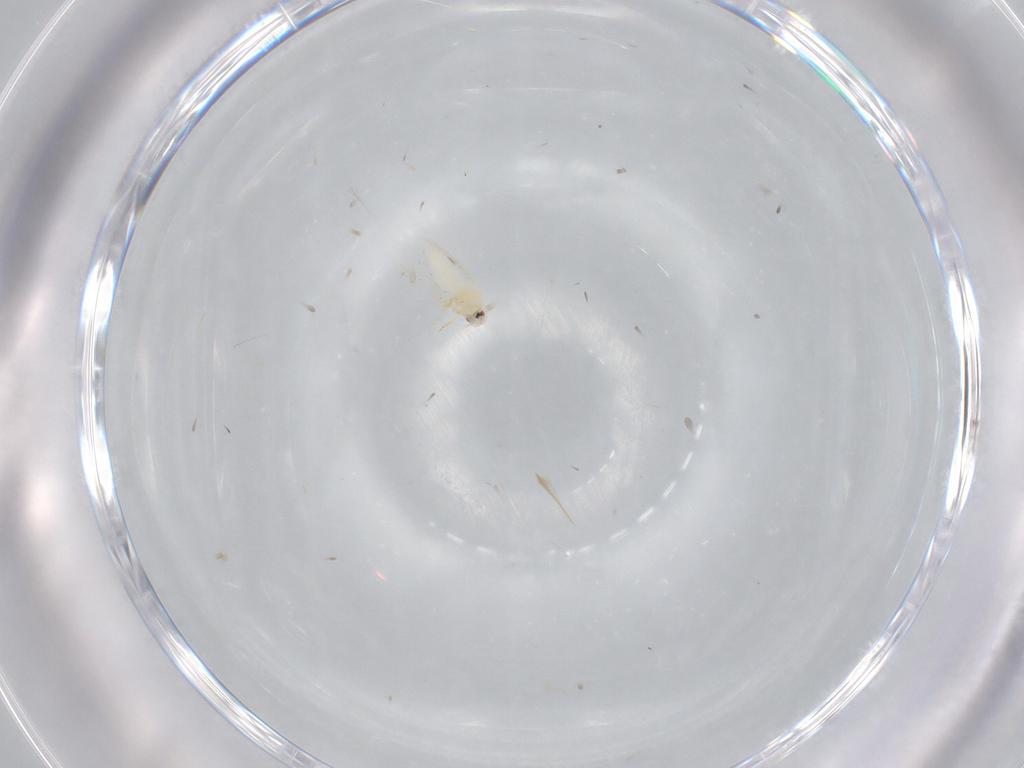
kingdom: Animalia
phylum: Arthropoda
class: Insecta
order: Hemiptera
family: Aleyrodidae
